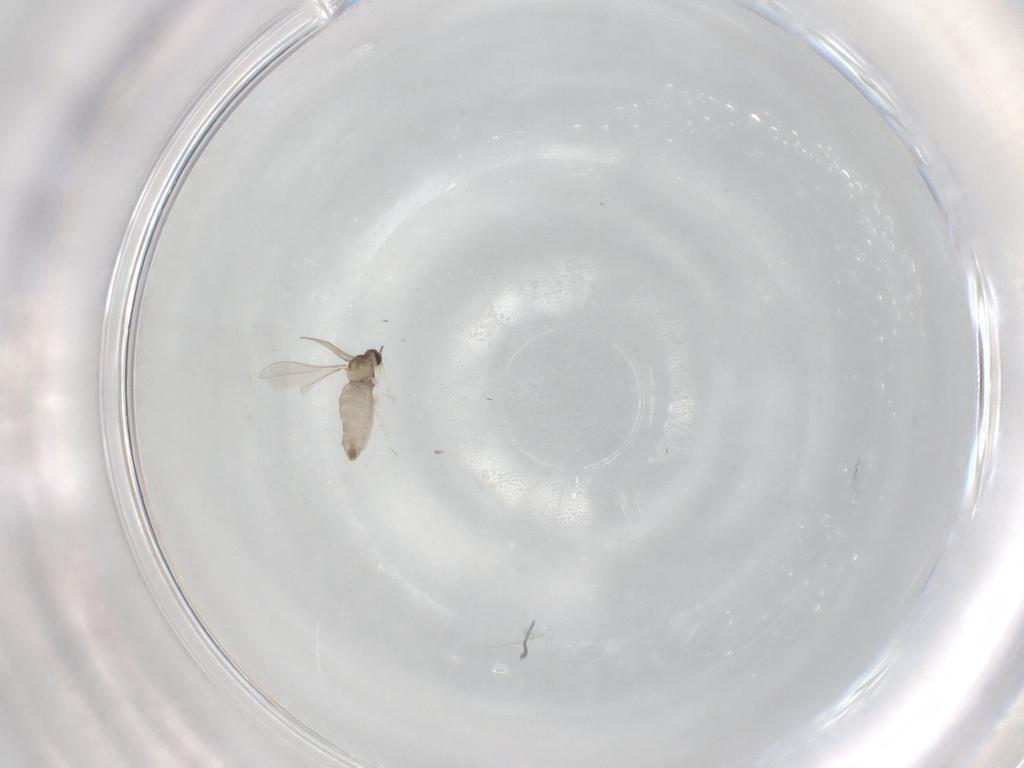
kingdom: Animalia
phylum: Arthropoda
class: Insecta
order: Diptera
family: Cecidomyiidae
